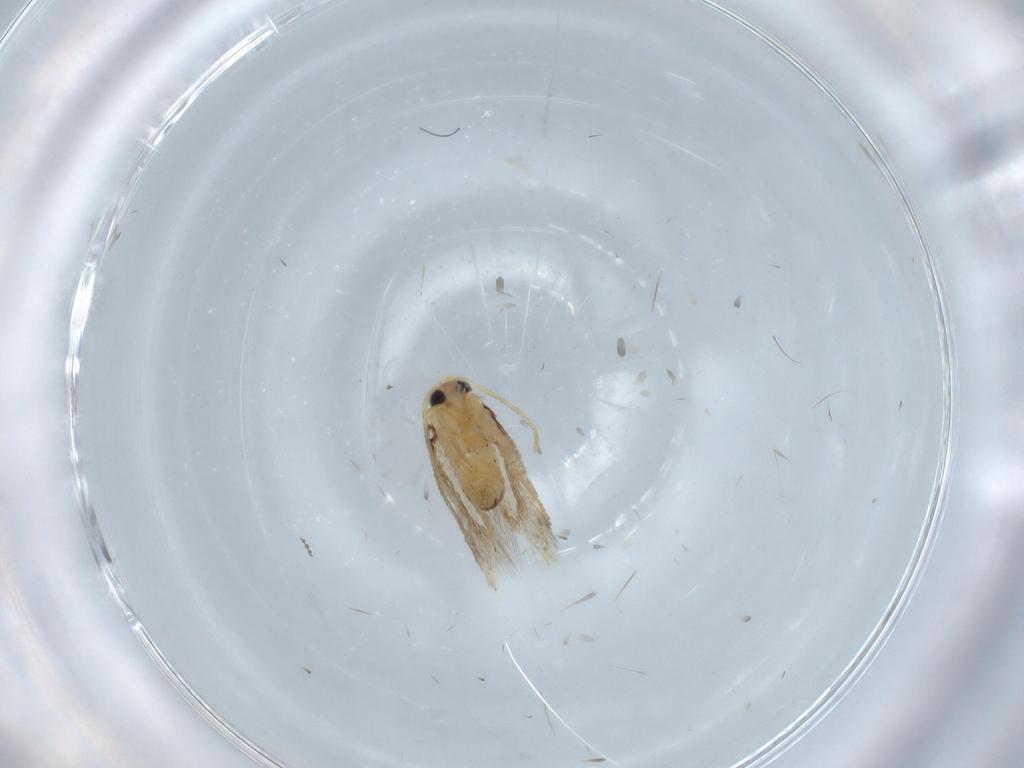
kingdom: Animalia
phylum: Arthropoda
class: Insecta
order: Lepidoptera
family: Nepticulidae
